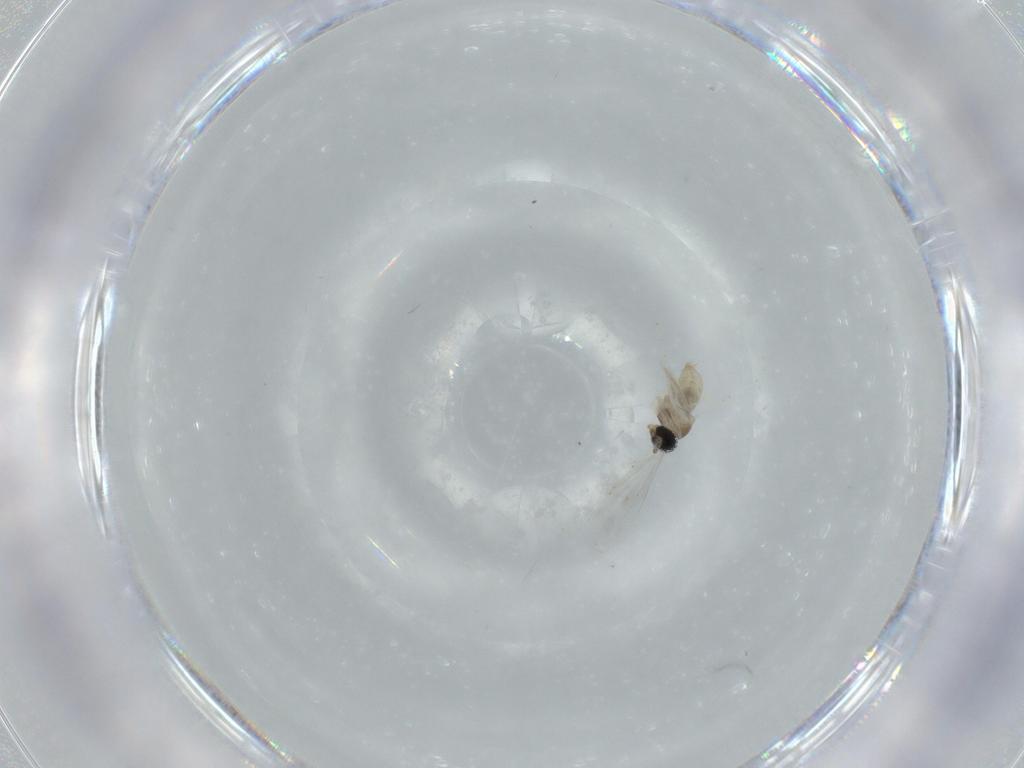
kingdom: Animalia
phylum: Arthropoda
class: Insecta
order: Diptera
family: Cecidomyiidae
